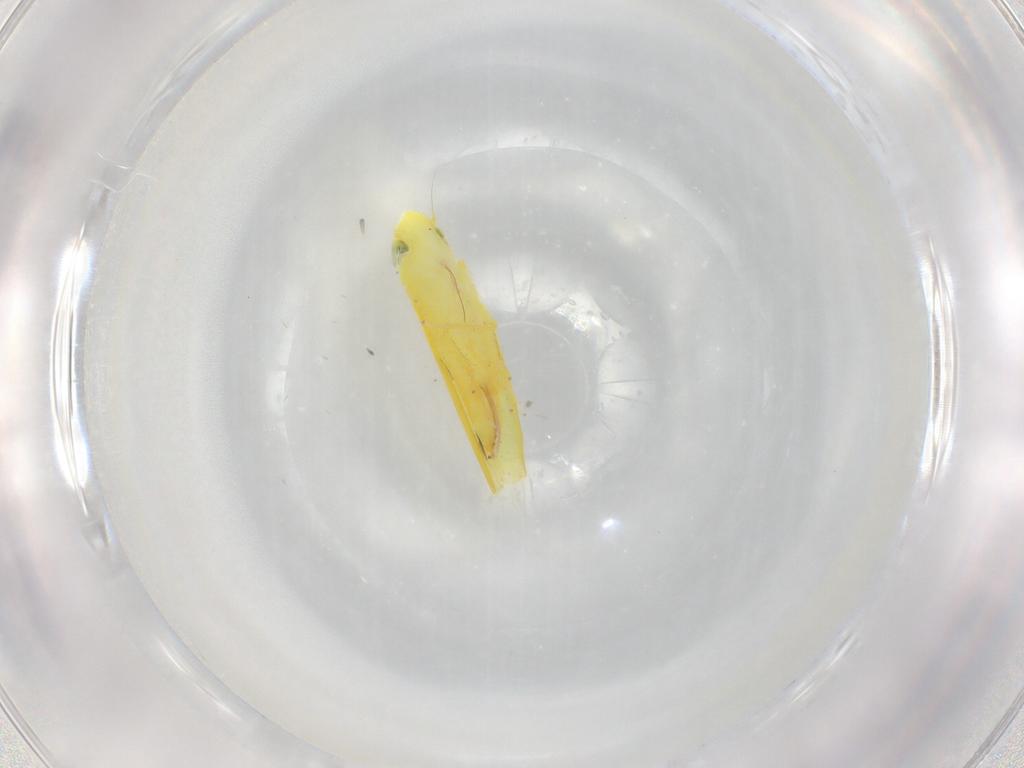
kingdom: Animalia
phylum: Arthropoda
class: Insecta
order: Hemiptera
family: Cicadellidae
